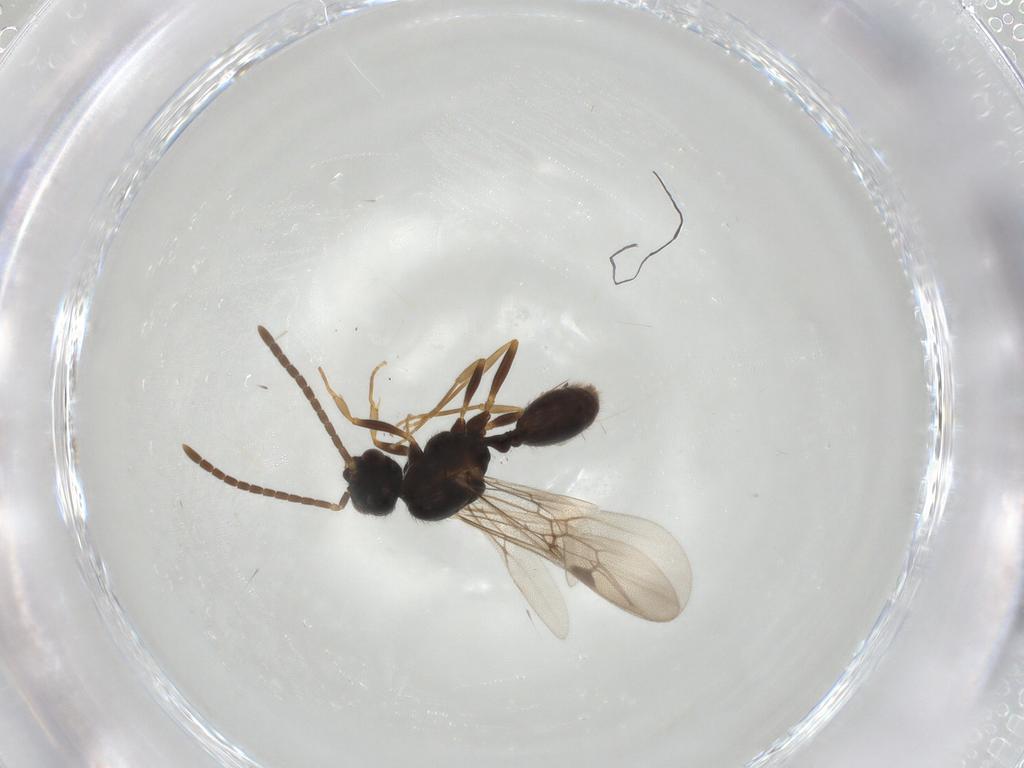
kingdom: Animalia
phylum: Arthropoda
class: Insecta
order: Hymenoptera
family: Formicidae
